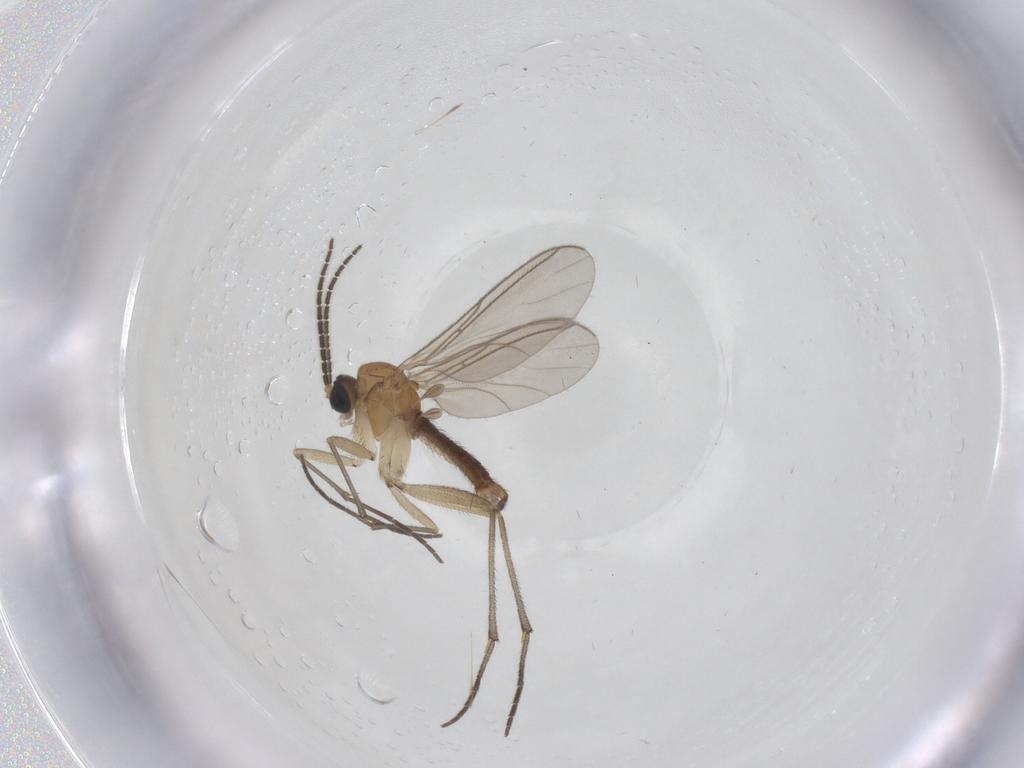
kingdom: Animalia
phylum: Arthropoda
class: Insecta
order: Diptera
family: Sciaridae
